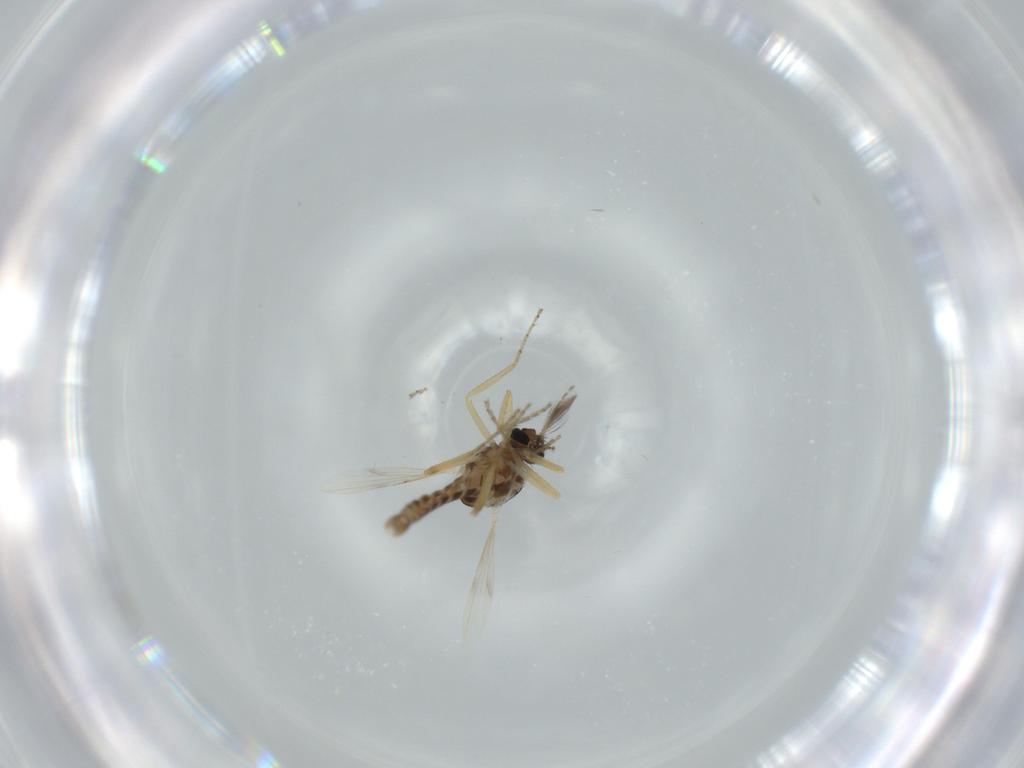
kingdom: Animalia
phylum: Arthropoda
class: Insecta
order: Diptera
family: Ceratopogonidae
